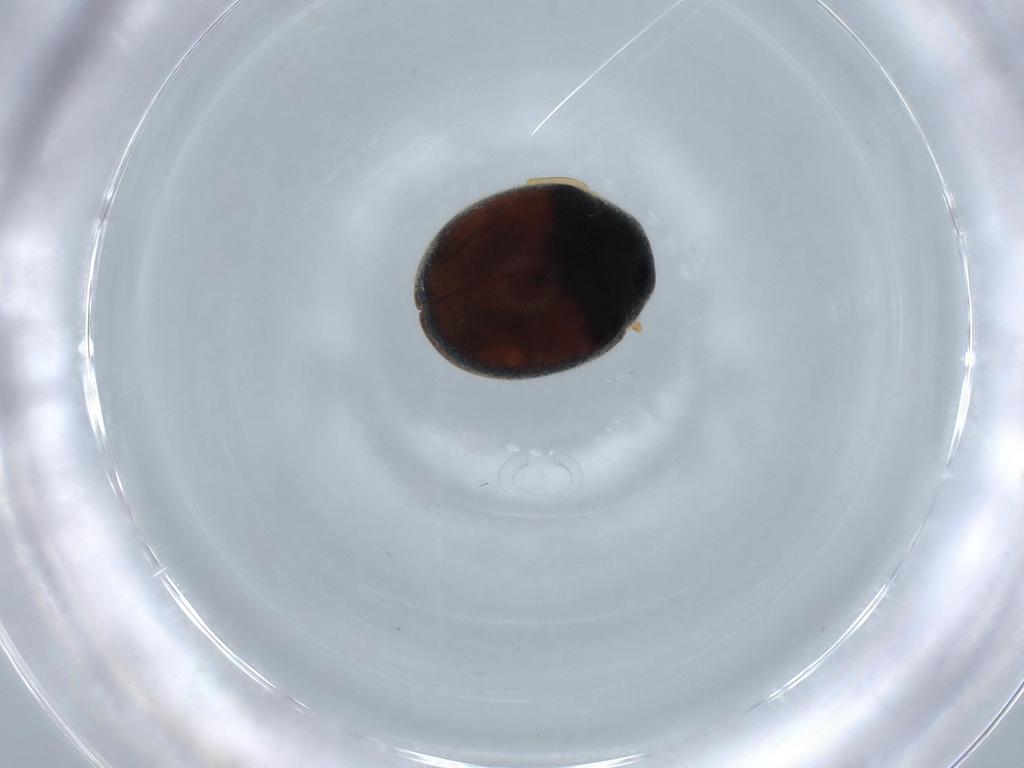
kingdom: Animalia
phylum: Arthropoda
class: Insecta
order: Coleoptera
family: Coccinellidae
